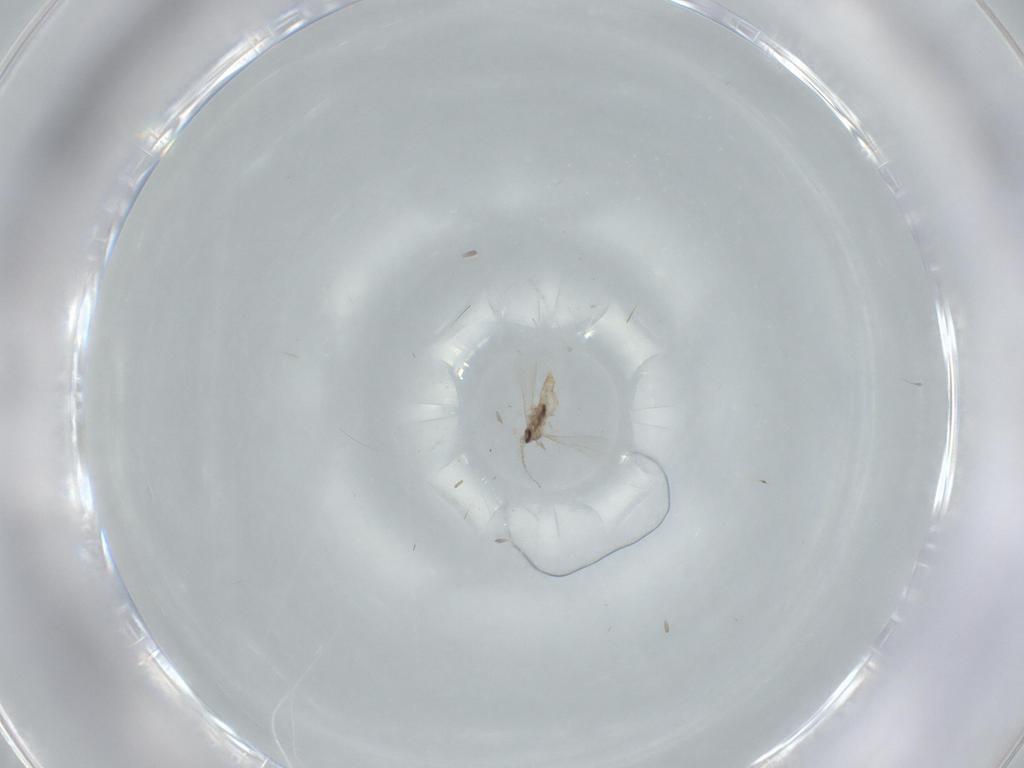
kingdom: Animalia
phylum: Arthropoda
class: Insecta
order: Diptera
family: Cecidomyiidae
